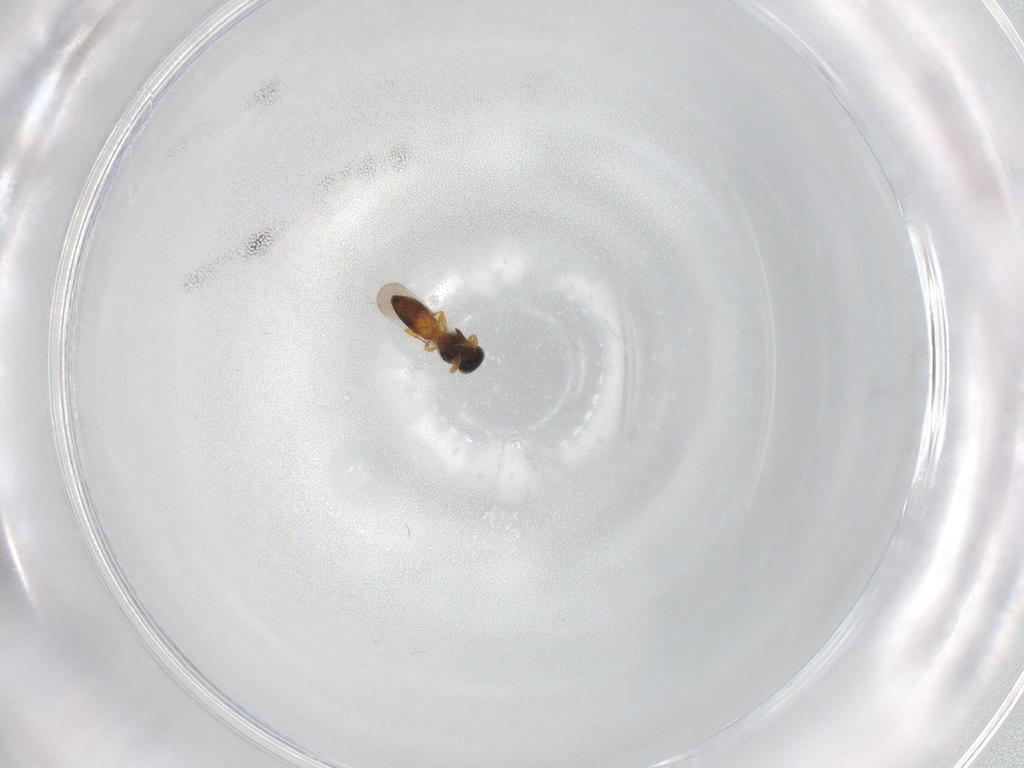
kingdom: Animalia
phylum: Arthropoda
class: Insecta
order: Hymenoptera
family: Platygastridae
